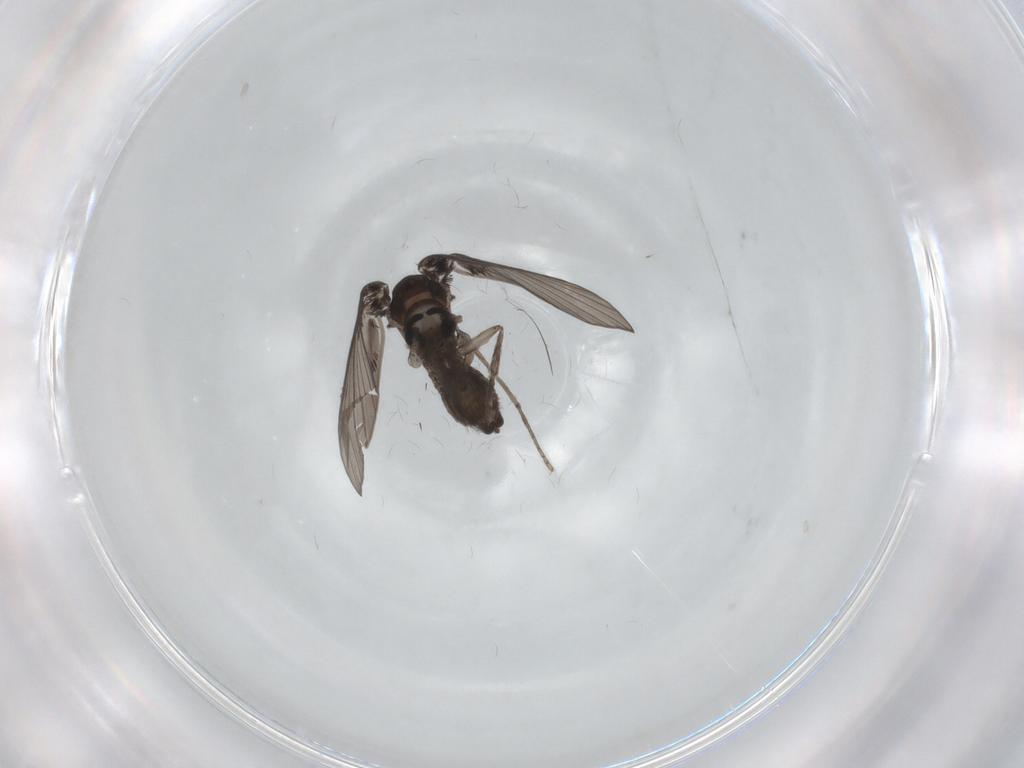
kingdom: Animalia
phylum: Arthropoda
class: Insecta
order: Diptera
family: Psychodidae
